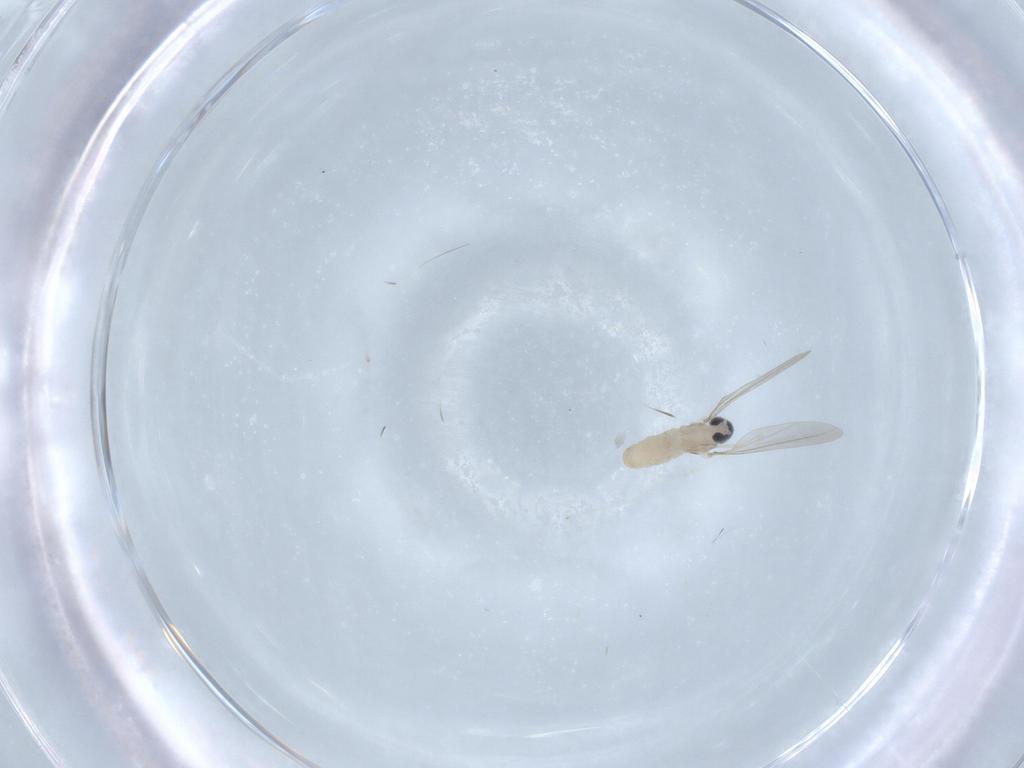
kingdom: Animalia
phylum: Arthropoda
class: Insecta
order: Diptera
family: Cecidomyiidae
